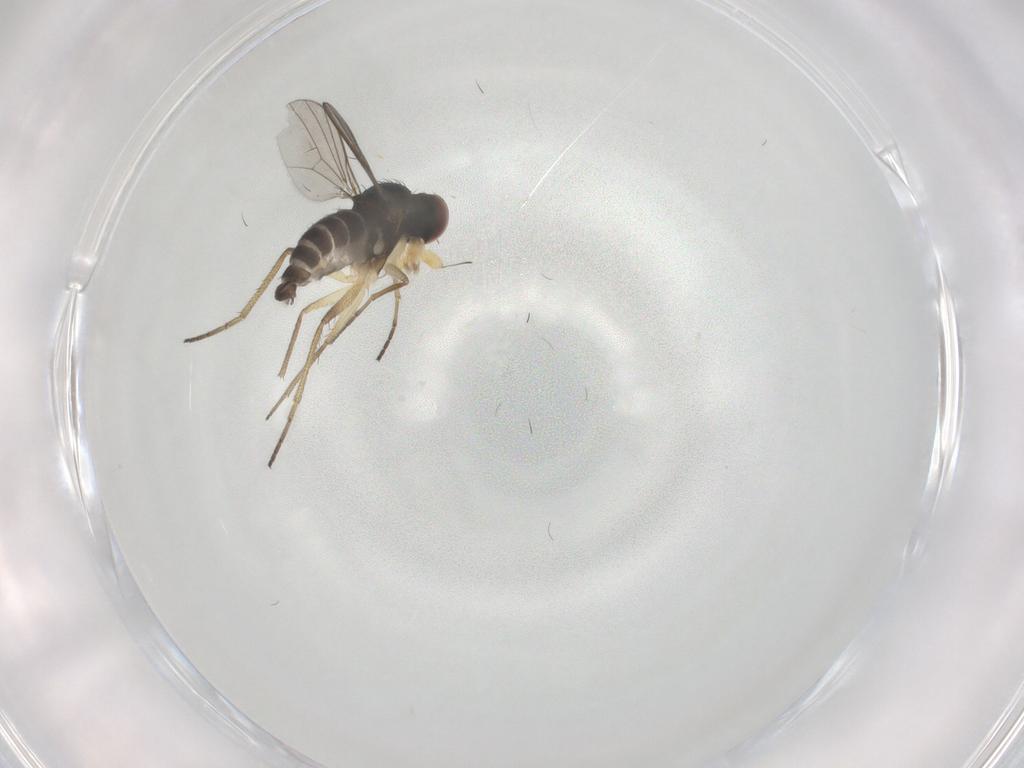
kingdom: Animalia
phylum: Arthropoda
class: Insecta
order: Diptera
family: Dolichopodidae
